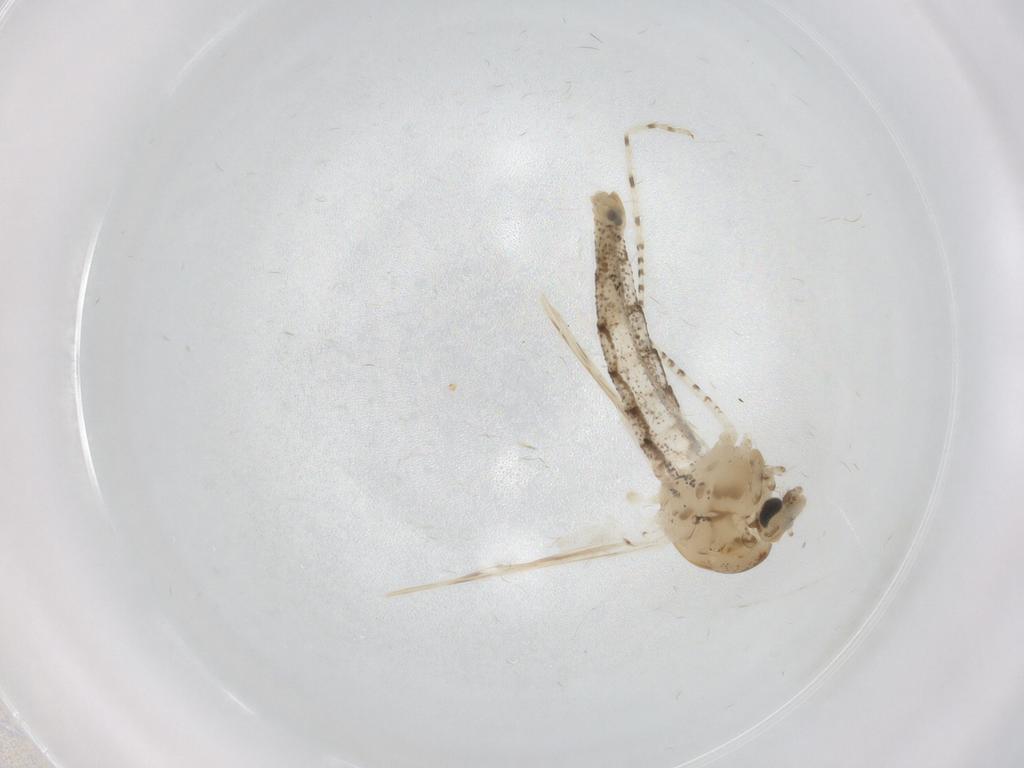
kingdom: Animalia
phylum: Arthropoda
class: Insecta
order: Diptera
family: Chaoboridae
